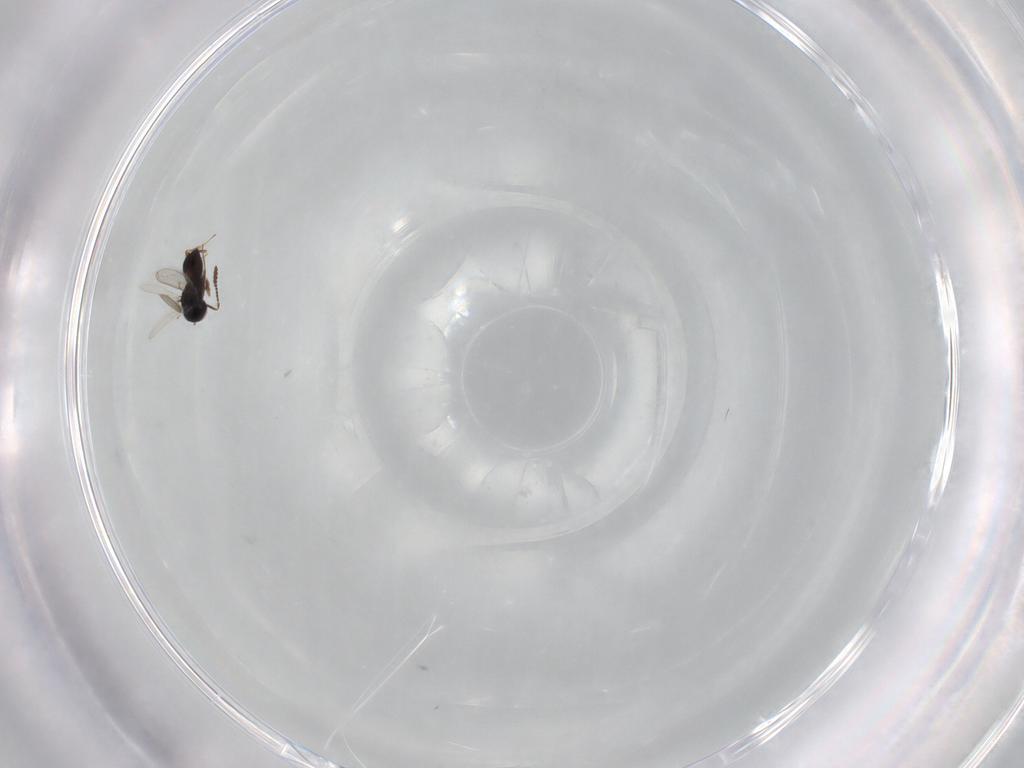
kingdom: Animalia
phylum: Arthropoda
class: Insecta
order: Hymenoptera
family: Scelionidae
